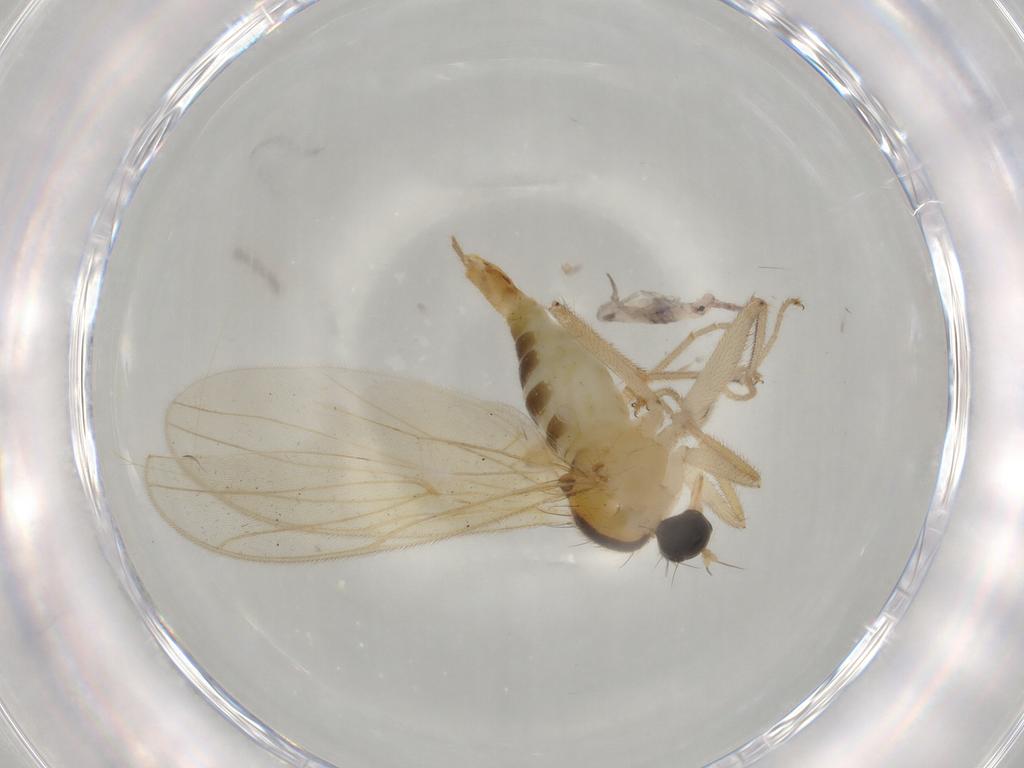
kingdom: Animalia
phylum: Arthropoda
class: Insecta
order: Diptera
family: Hybotidae
